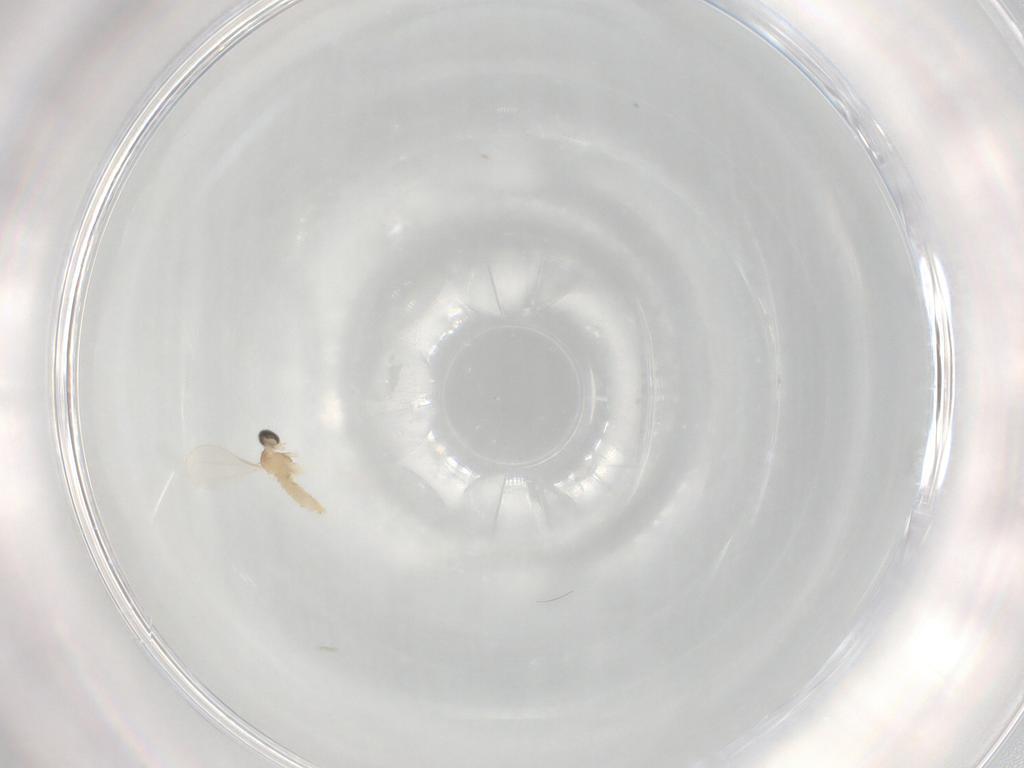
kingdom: Animalia
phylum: Arthropoda
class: Insecta
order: Diptera
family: Cecidomyiidae
